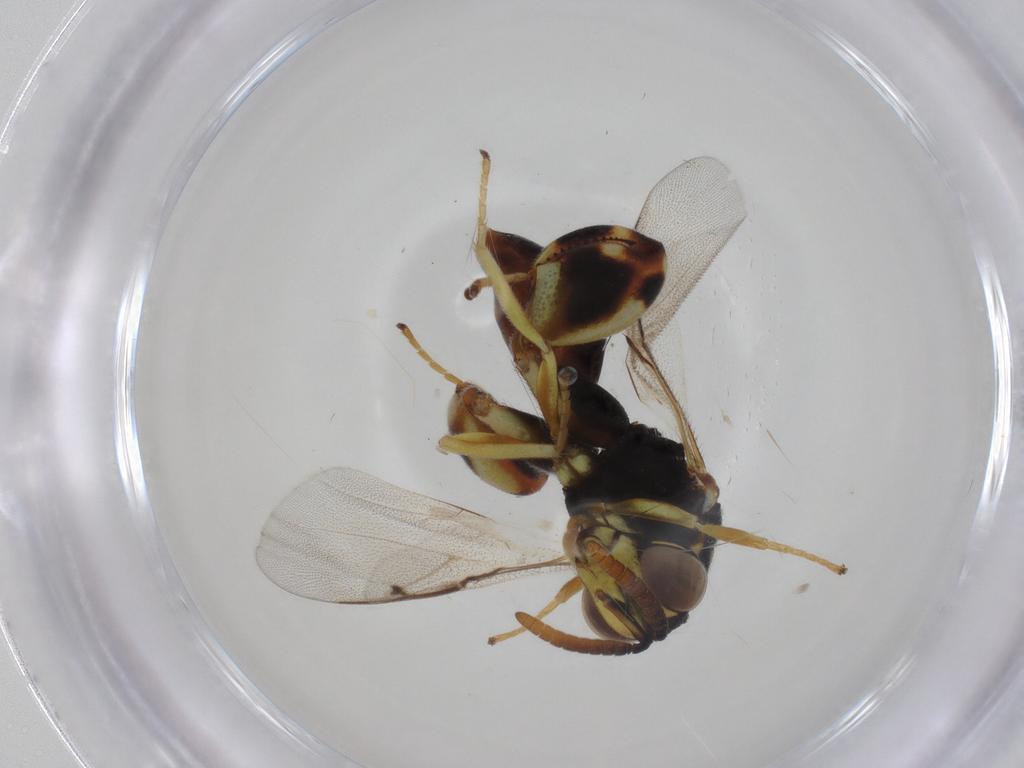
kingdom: Animalia
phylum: Arthropoda
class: Insecta
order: Hymenoptera
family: Chalcididae
